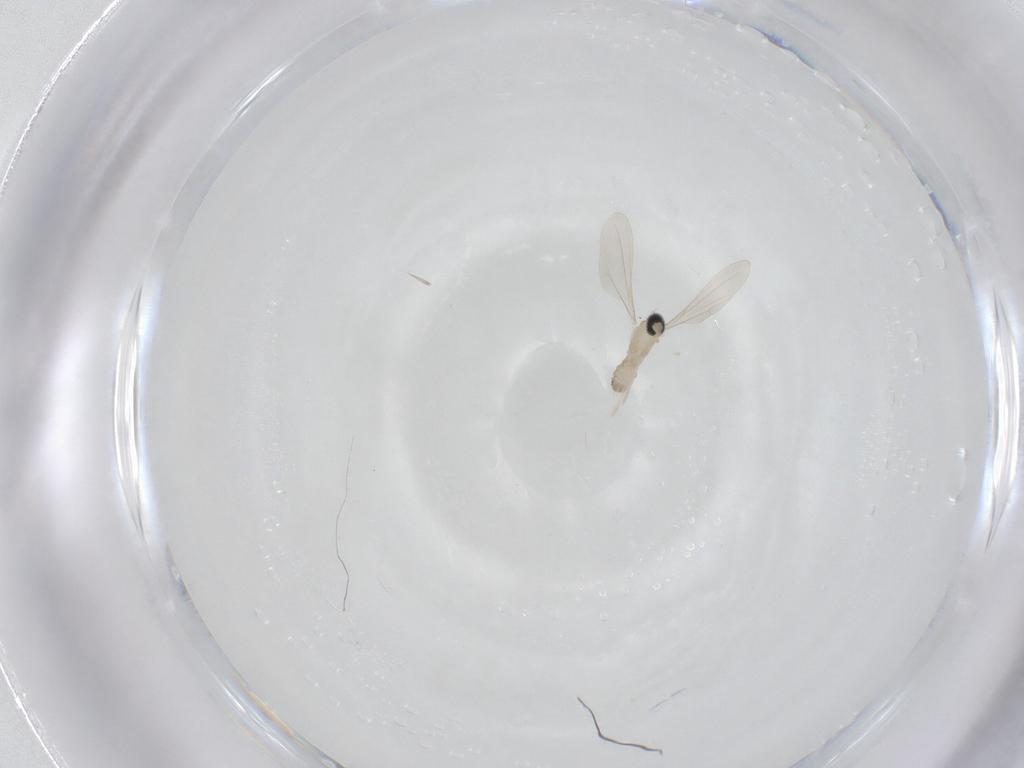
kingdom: Animalia
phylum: Arthropoda
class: Insecta
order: Diptera
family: Cecidomyiidae
